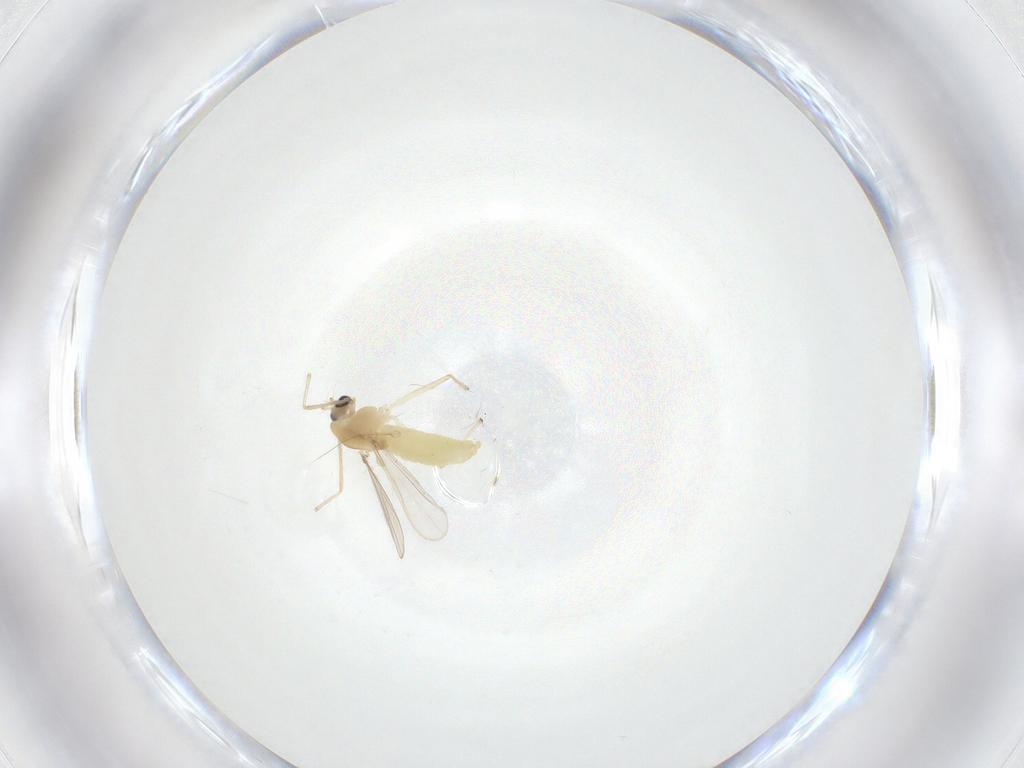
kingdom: Animalia
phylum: Arthropoda
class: Insecta
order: Diptera
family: Chironomidae
